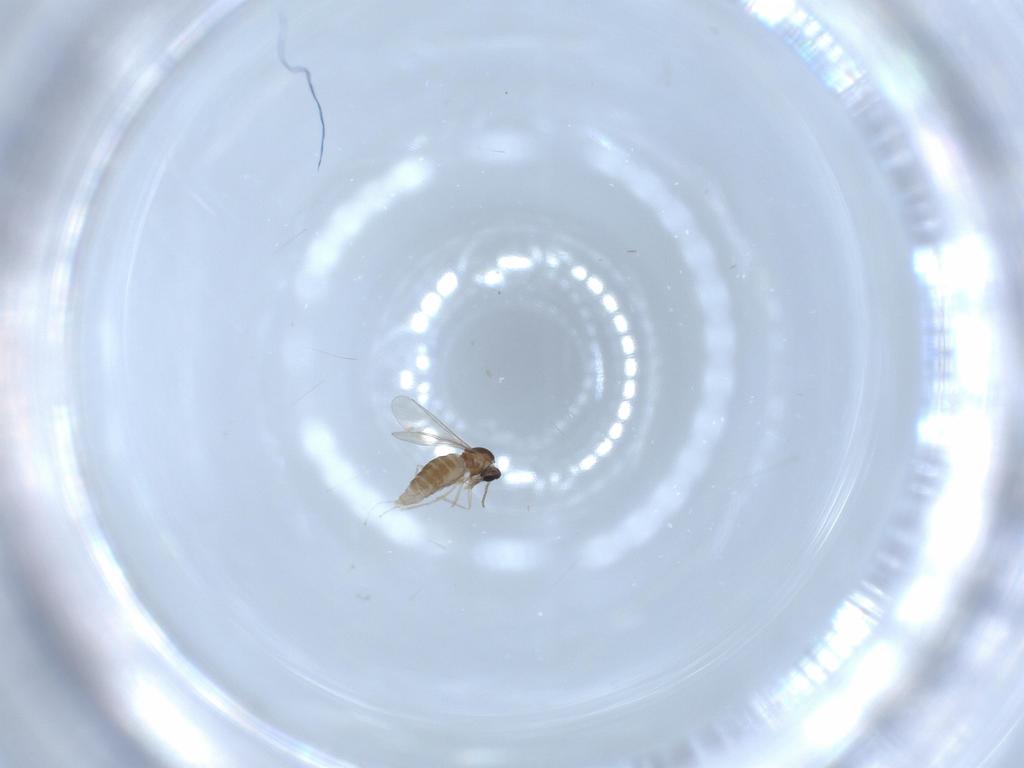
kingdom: Animalia
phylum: Arthropoda
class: Insecta
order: Diptera
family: Cecidomyiidae
